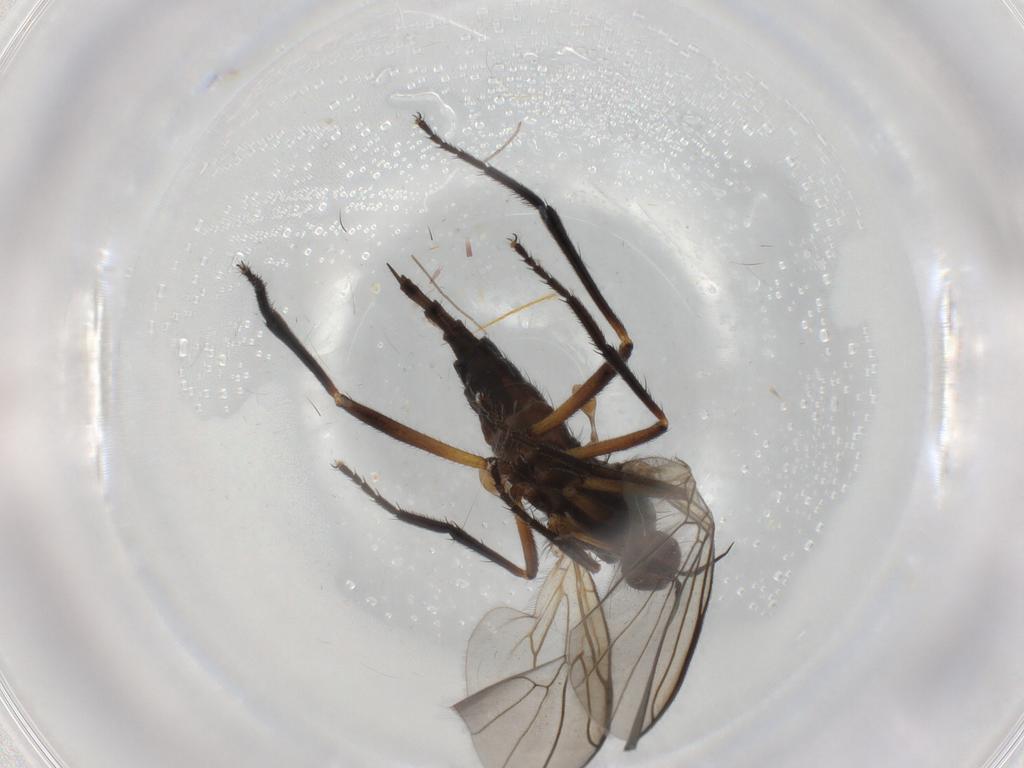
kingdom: Animalia
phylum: Arthropoda
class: Insecta
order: Diptera
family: Empididae
